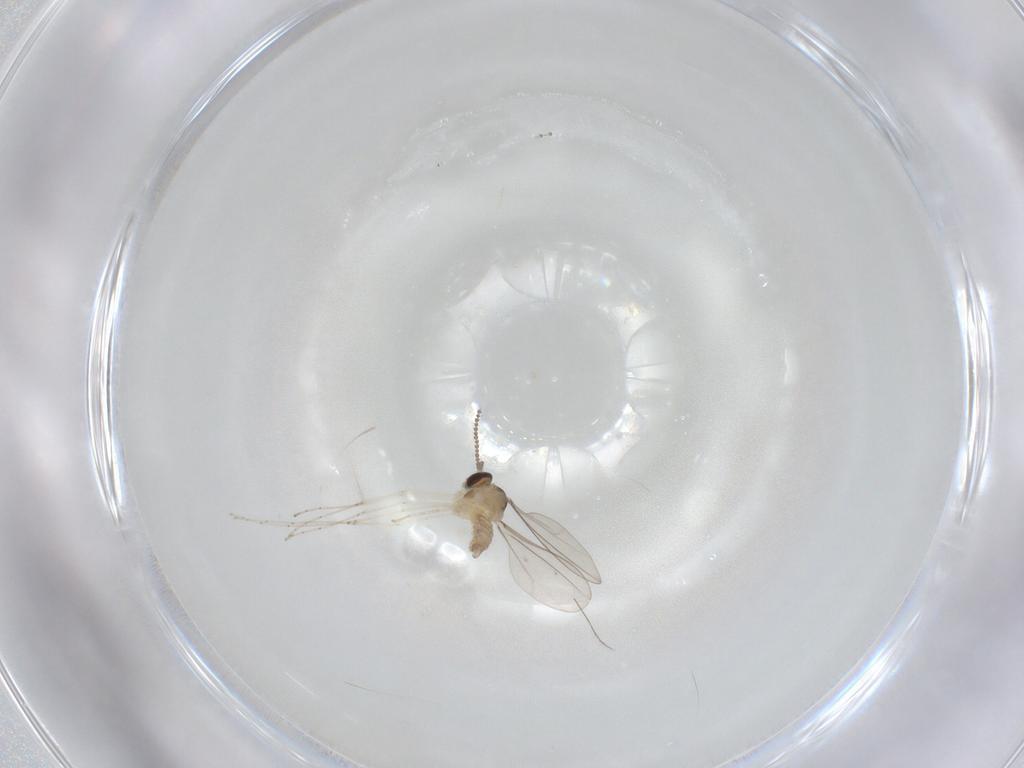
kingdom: Animalia
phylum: Arthropoda
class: Insecta
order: Diptera
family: Cecidomyiidae
